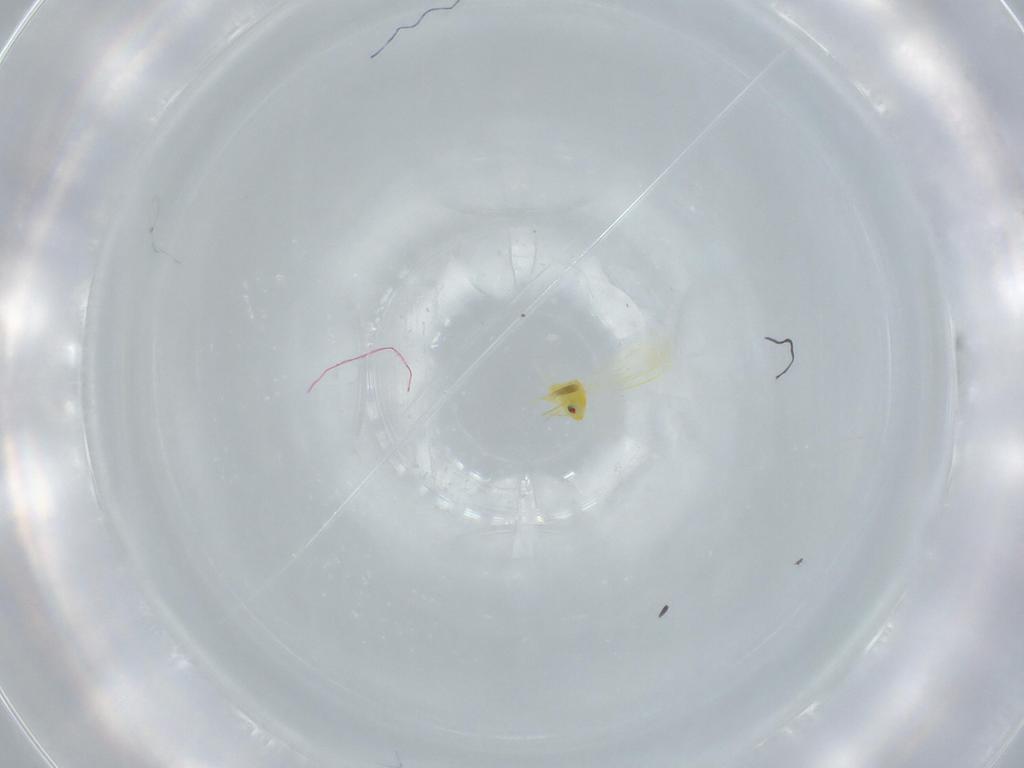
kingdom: Animalia
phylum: Arthropoda
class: Insecta
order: Hemiptera
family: Aleyrodidae
